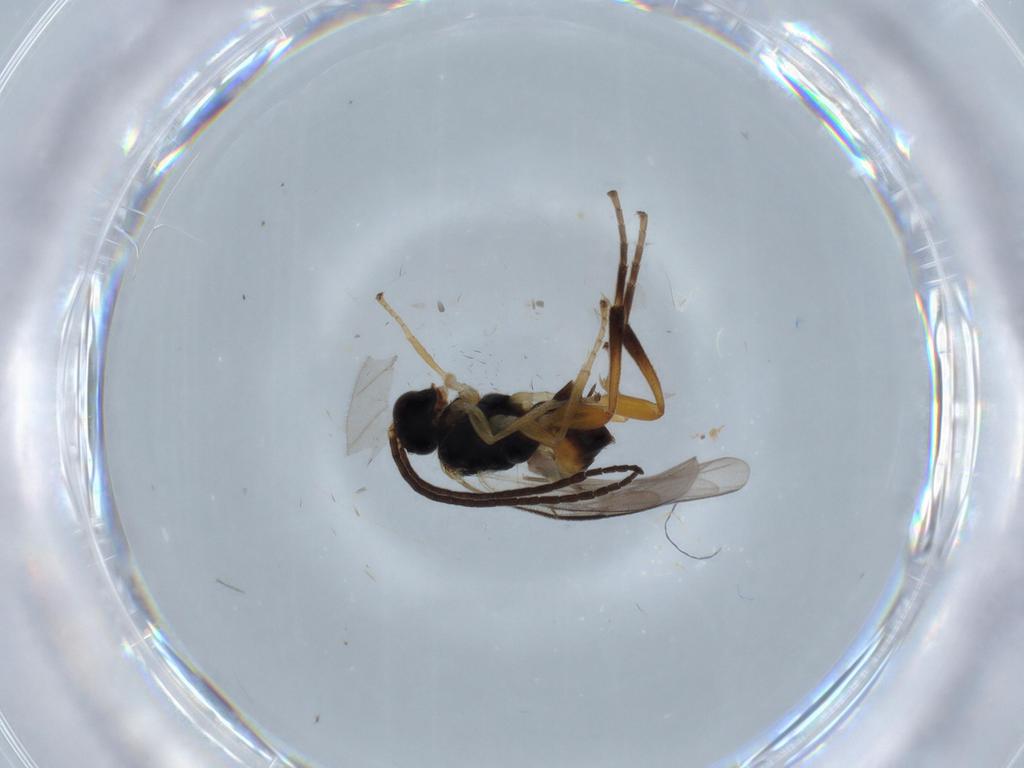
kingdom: Animalia
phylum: Arthropoda
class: Insecta
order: Hymenoptera
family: Braconidae
